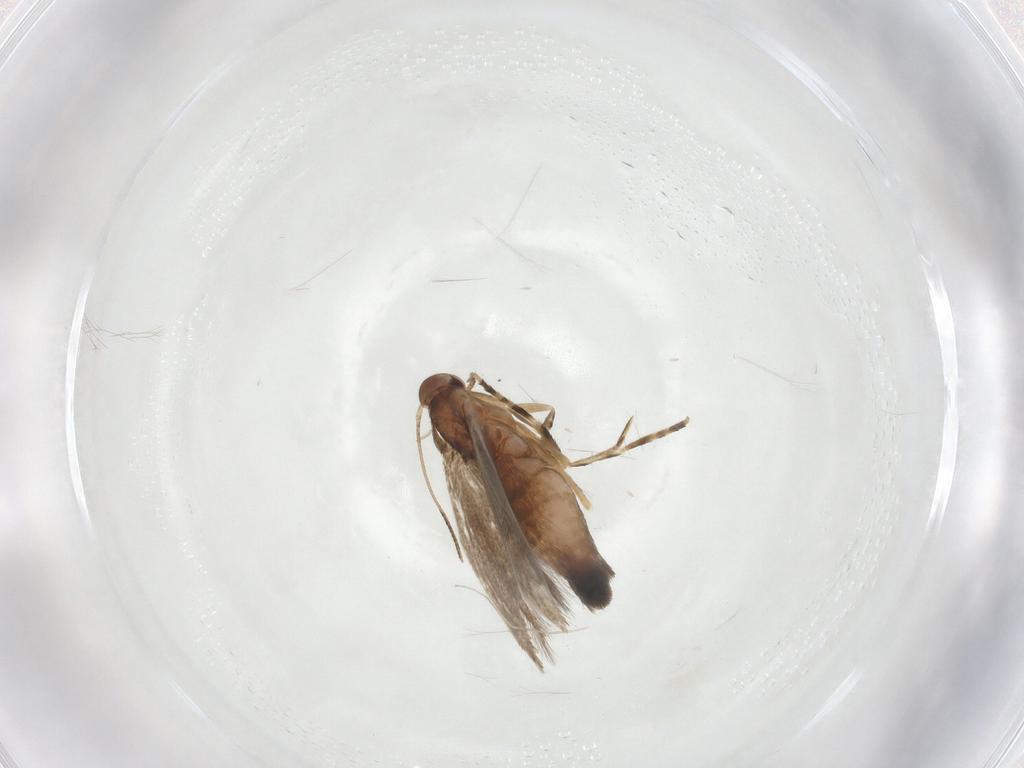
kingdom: Animalia
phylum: Arthropoda
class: Insecta
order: Lepidoptera
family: Elachistidae
